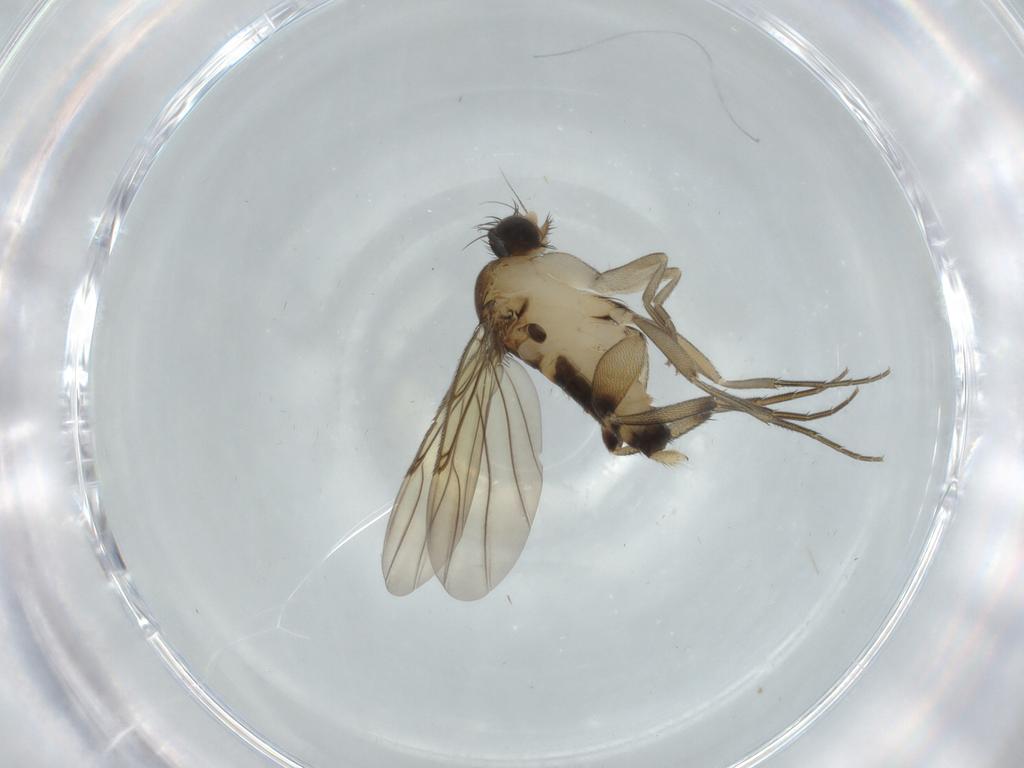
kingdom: Animalia
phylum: Arthropoda
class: Insecta
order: Diptera
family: Phoridae
